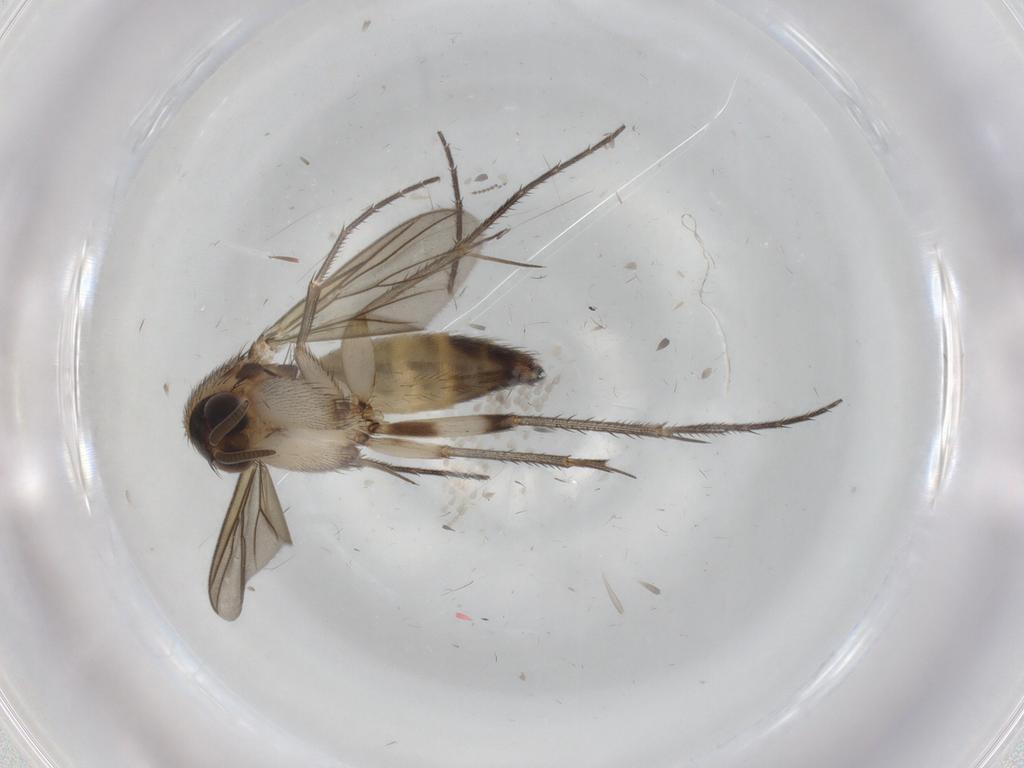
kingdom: Animalia
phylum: Arthropoda
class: Insecta
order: Diptera
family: Mycetophilidae
